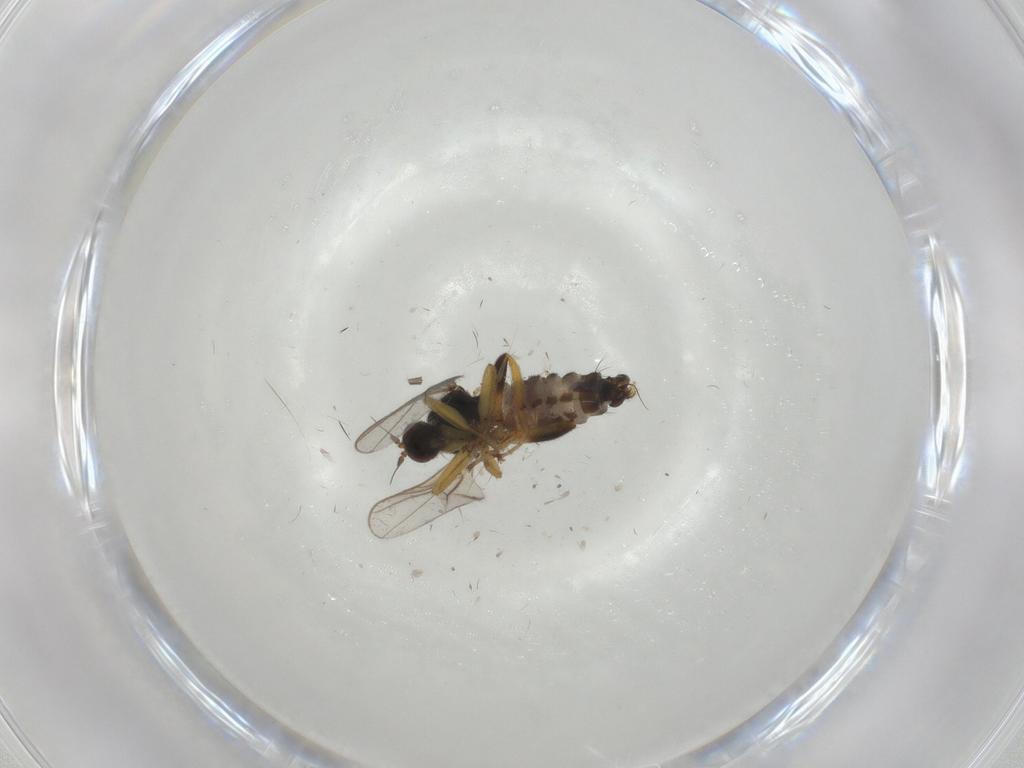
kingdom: Animalia
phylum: Arthropoda
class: Insecta
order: Diptera
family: Hybotidae
